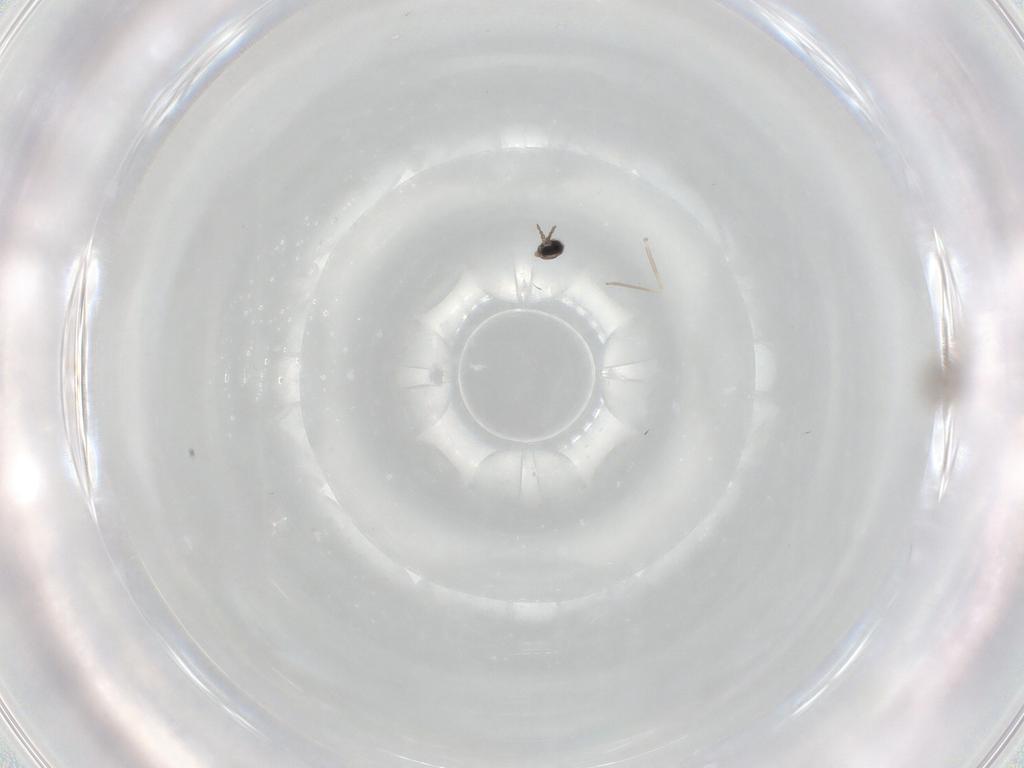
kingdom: Animalia
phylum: Arthropoda
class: Insecta
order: Diptera
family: Cecidomyiidae
